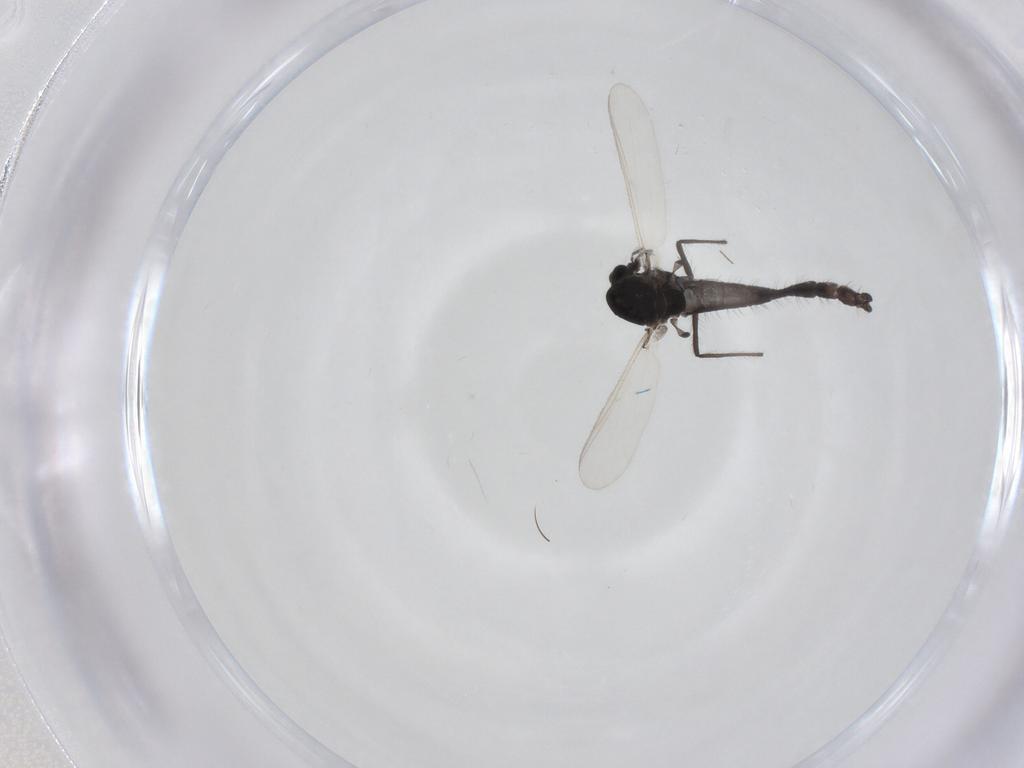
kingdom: Animalia
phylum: Arthropoda
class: Insecta
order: Diptera
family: Chironomidae
